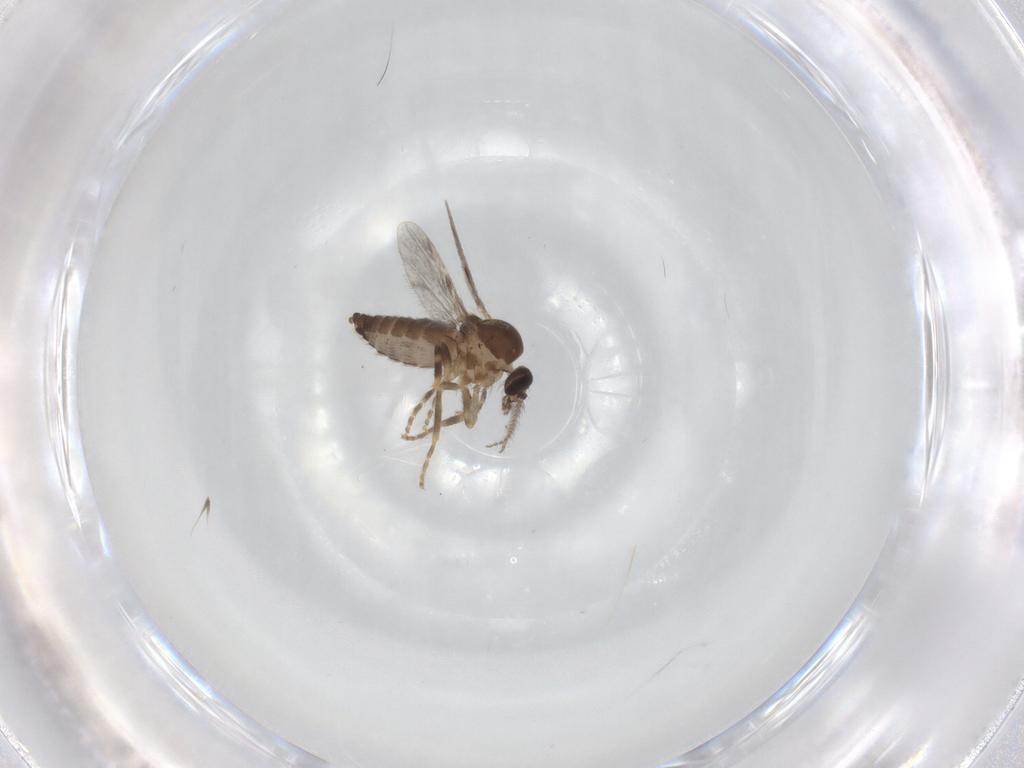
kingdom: Animalia
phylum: Arthropoda
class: Insecta
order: Diptera
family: Ceratopogonidae
